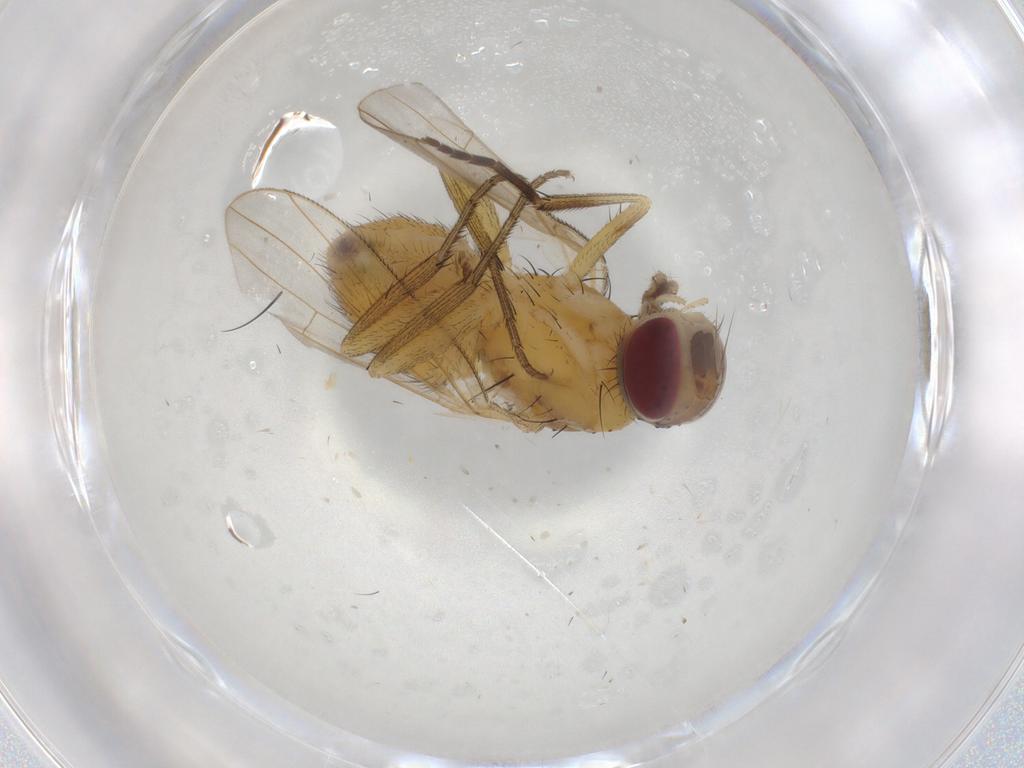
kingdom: Animalia
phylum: Arthropoda
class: Insecta
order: Diptera
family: Muscidae
